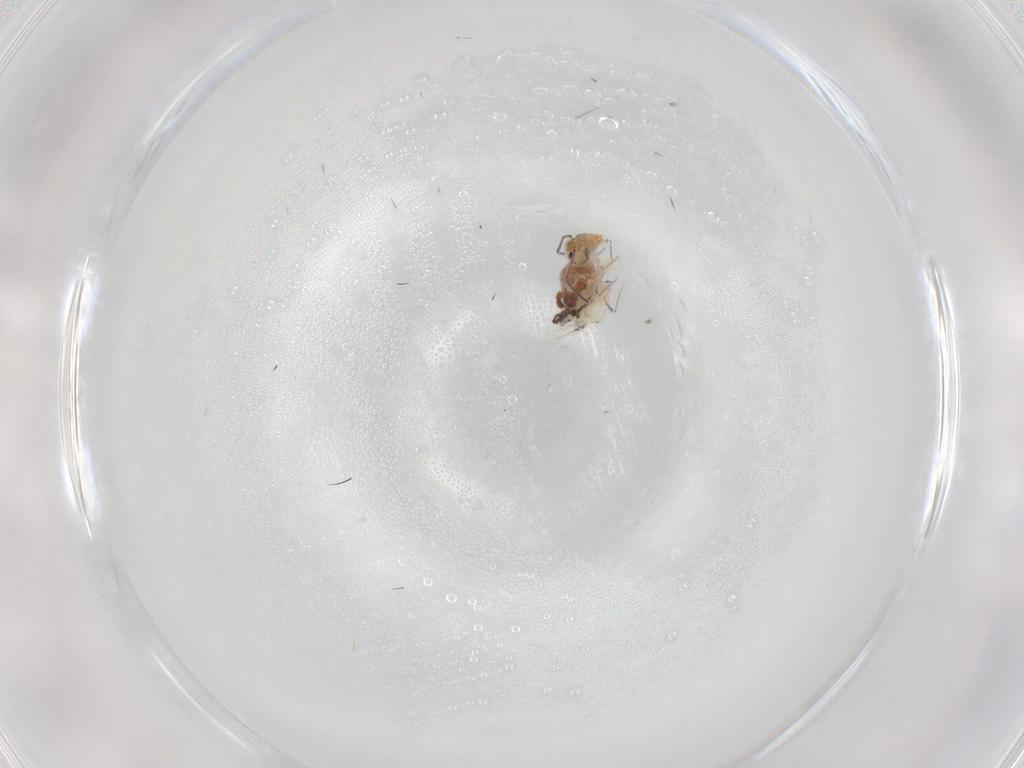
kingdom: Animalia
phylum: Arthropoda
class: Collembola
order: Symphypleona
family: Bourletiellidae
